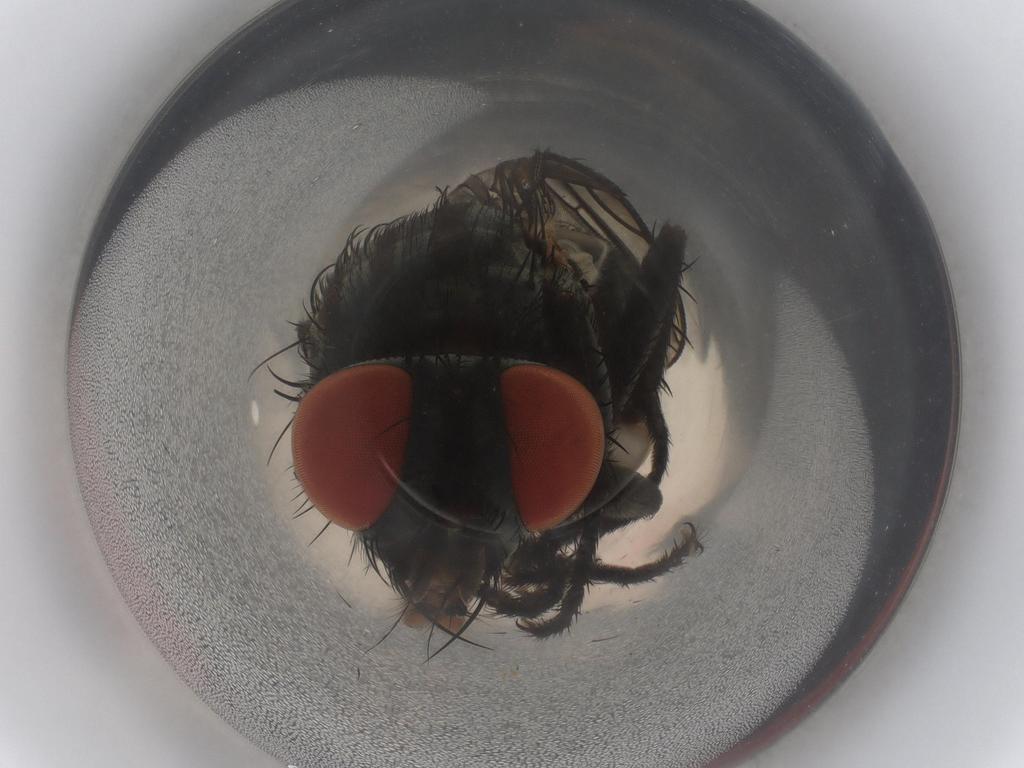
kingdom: Animalia
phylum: Arthropoda
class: Insecta
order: Diptera
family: Sarcophagidae
